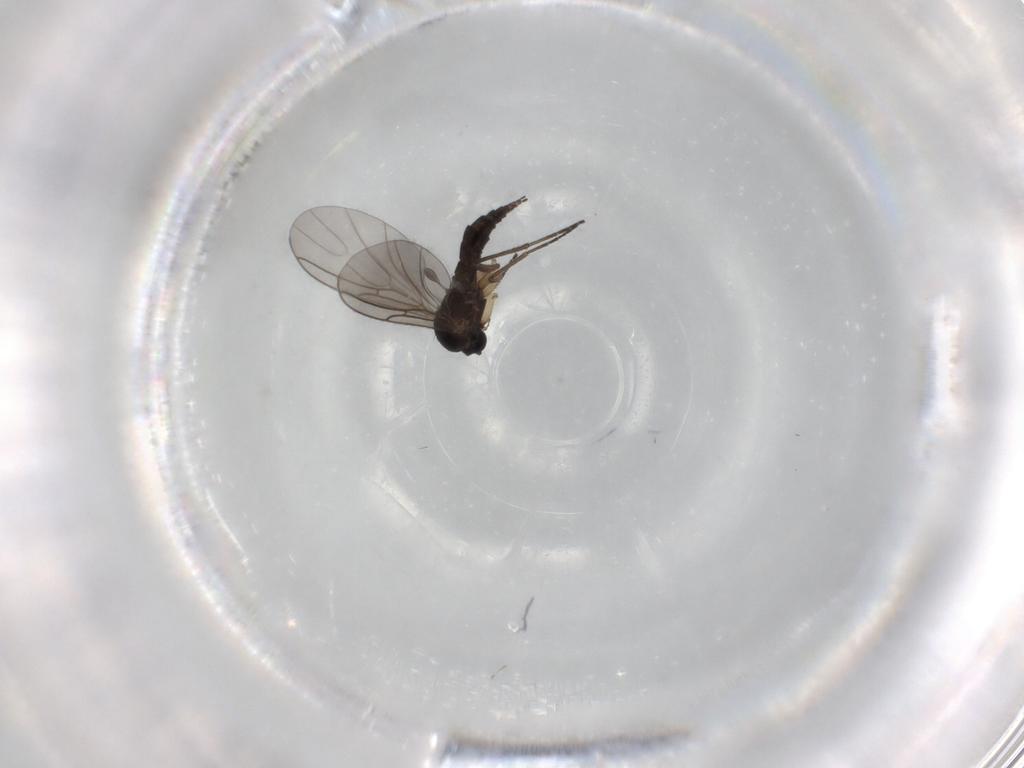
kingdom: Animalia
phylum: Arthropoda
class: Insecta
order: Diptera
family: Sciaridae
